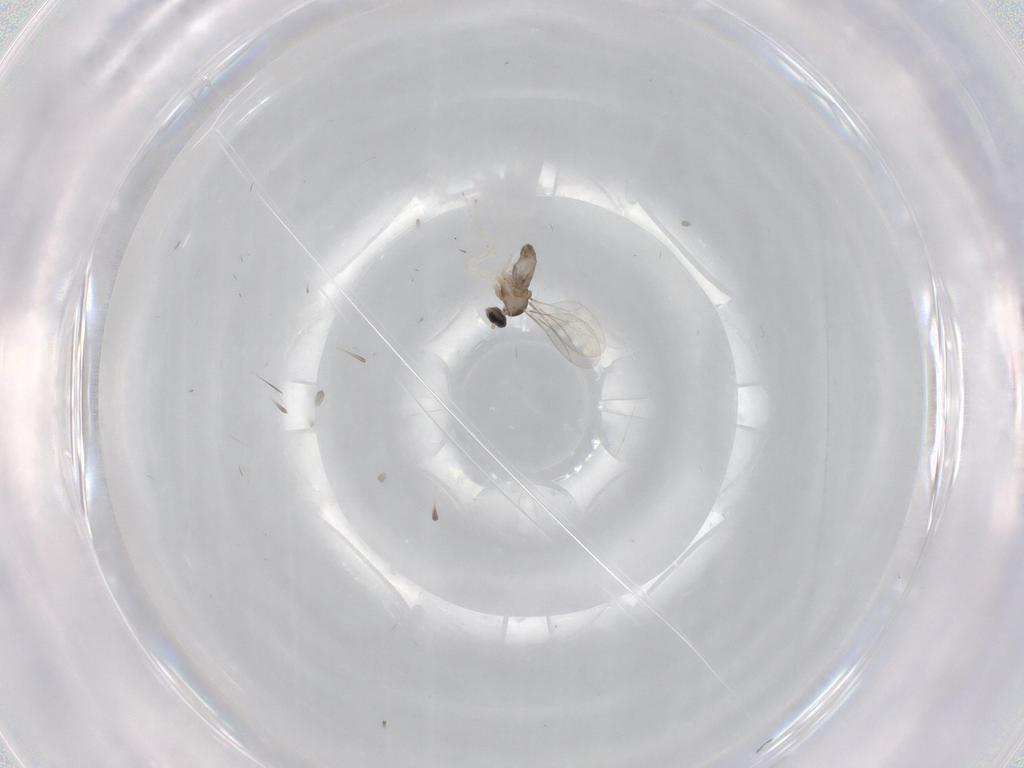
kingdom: Animalia
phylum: Arthropoda
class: Insecta
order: Diptera
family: Cecidomyiidae
